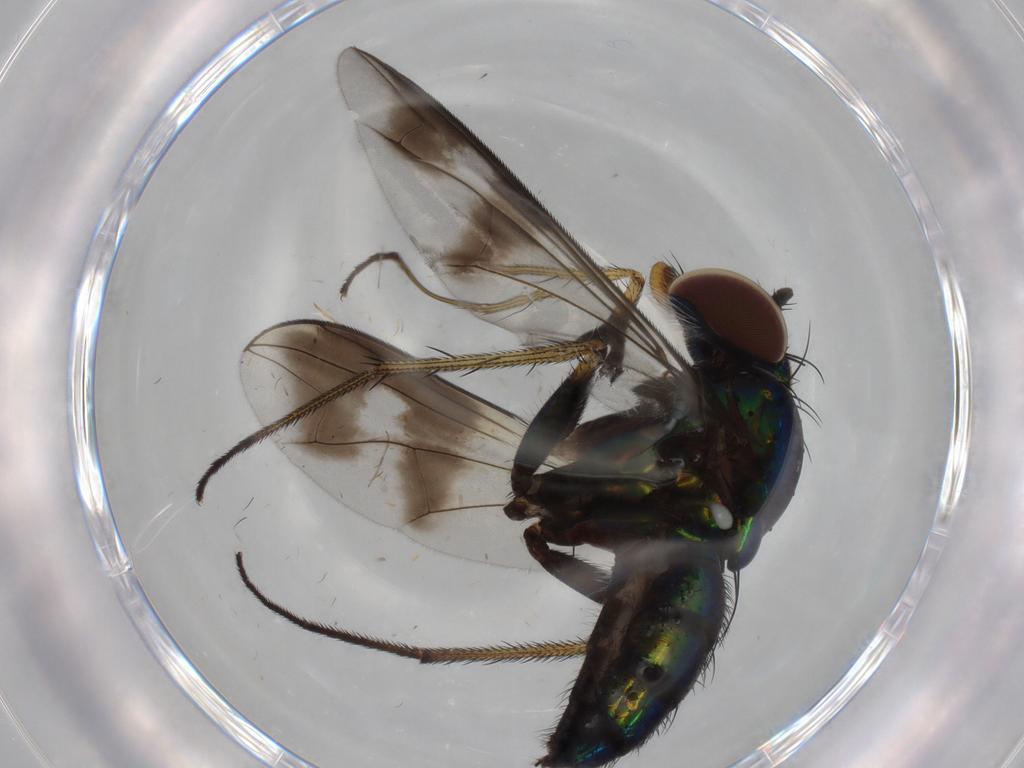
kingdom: Animalia
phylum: Arthropoda
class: Insecta
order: Diptera
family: Dolichopodidae
